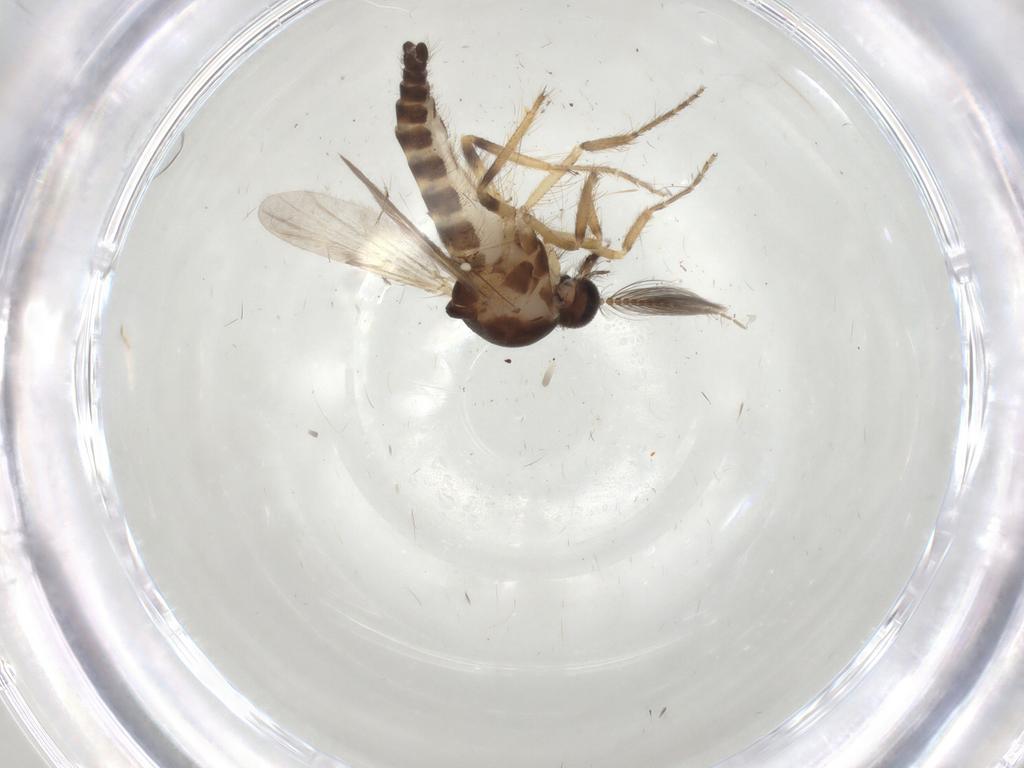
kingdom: Animalia
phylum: Arthropoda
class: Insecta
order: Diptera
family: Ceratopogonidae
